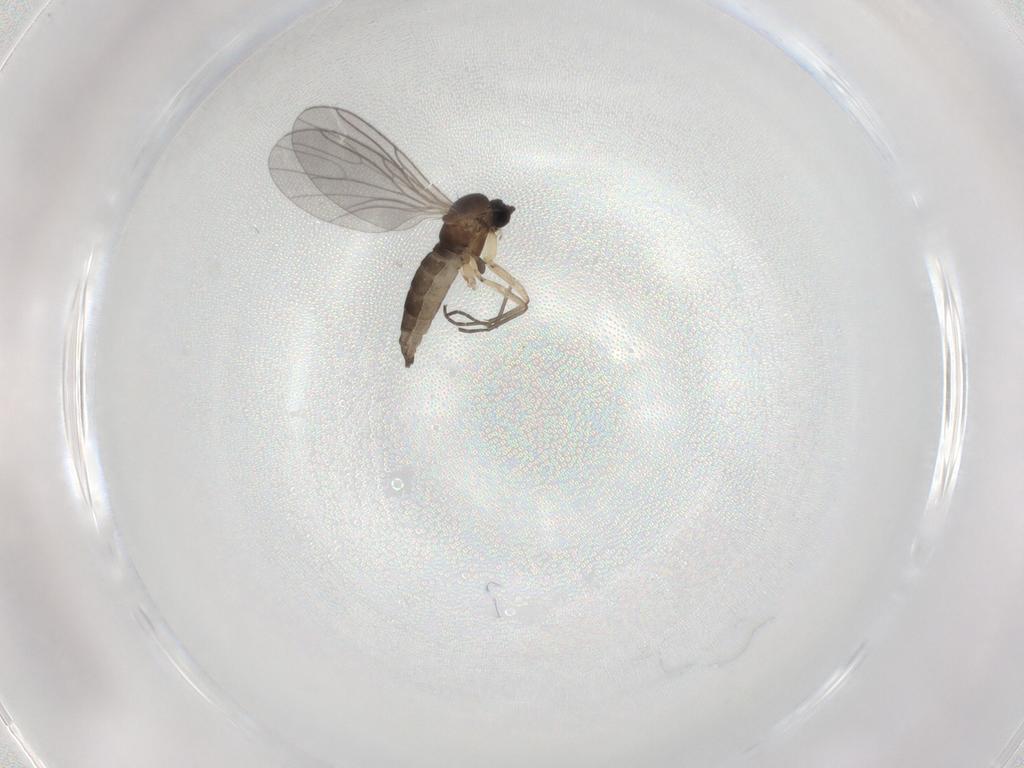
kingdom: Animalia
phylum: Arthropoda
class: Insecta
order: Diptera
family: Sciaridae
